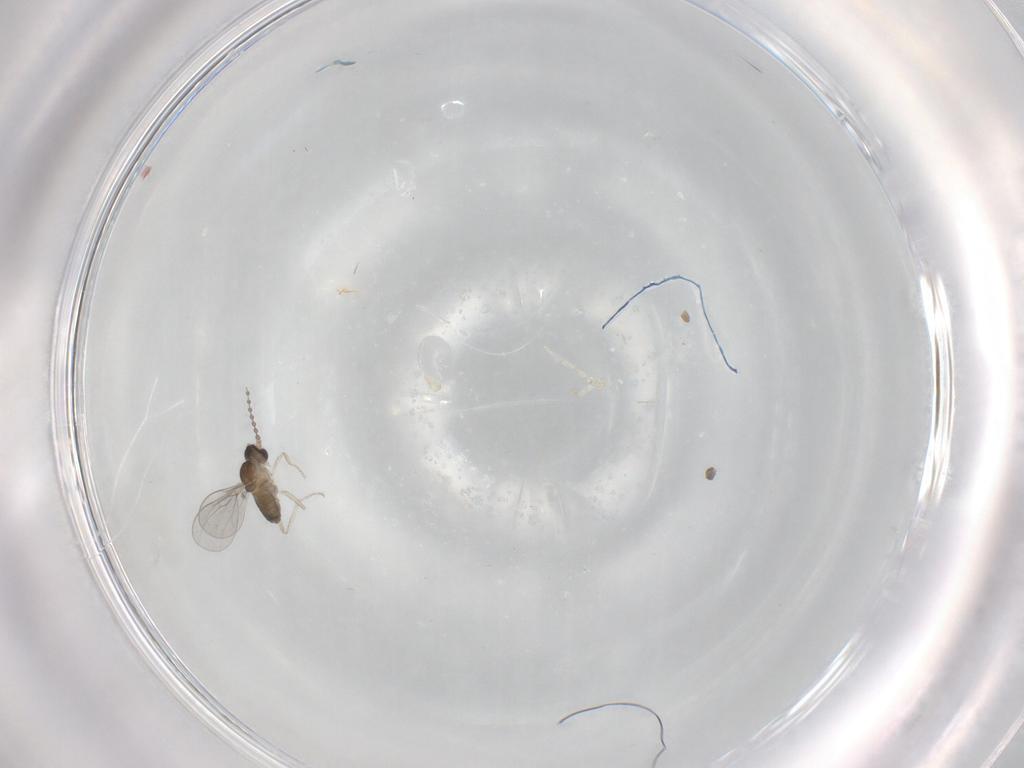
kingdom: Animalia
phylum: Arthropoda
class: Insecta
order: Diptera
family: Cecidomyiidae
